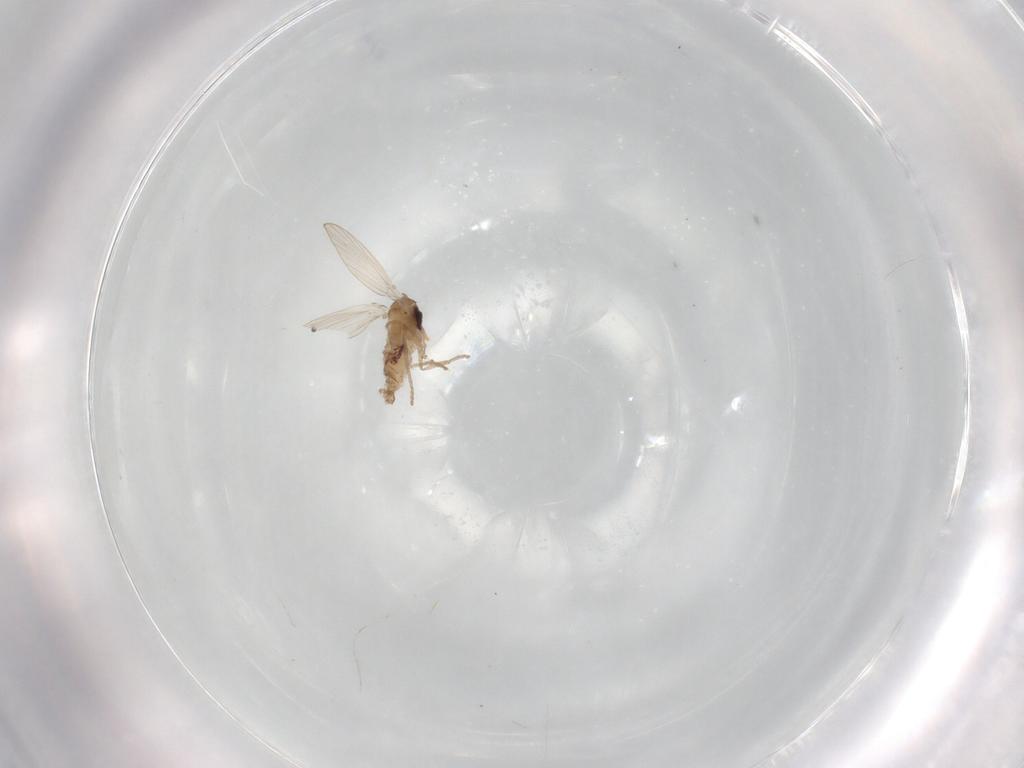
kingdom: Animalia
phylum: Arthropoda
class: Insecta
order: Diptera
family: Psychodidae
